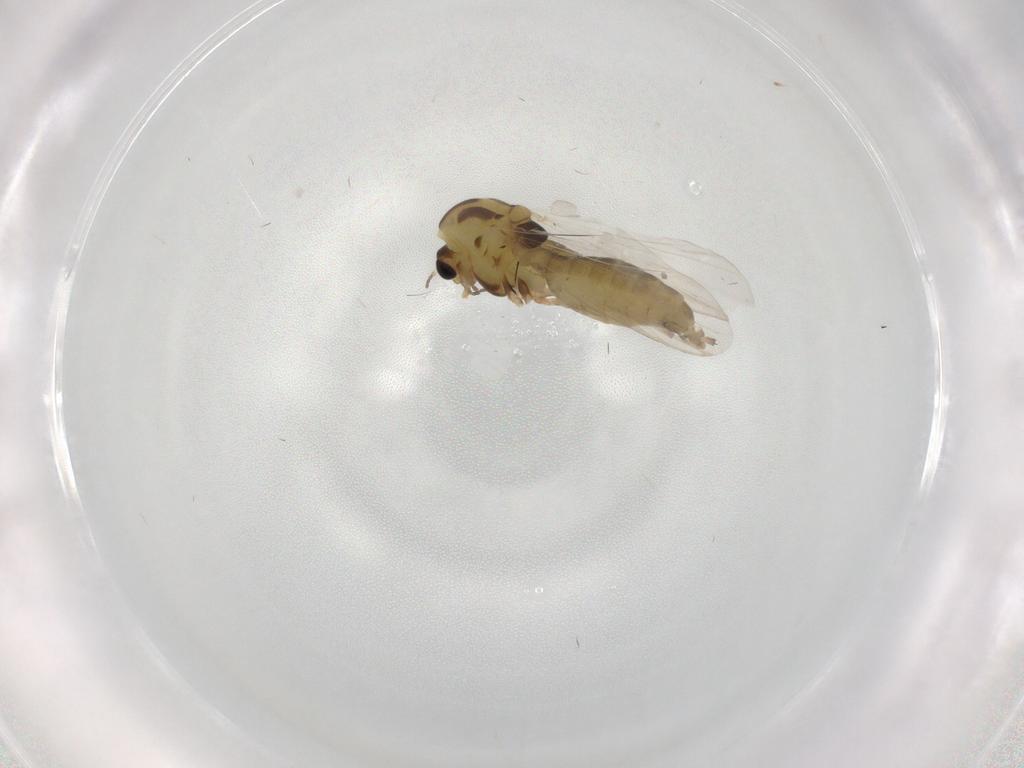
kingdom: Animalia
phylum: Arthropoda
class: Insecta
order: Diptera
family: Chironomidae
